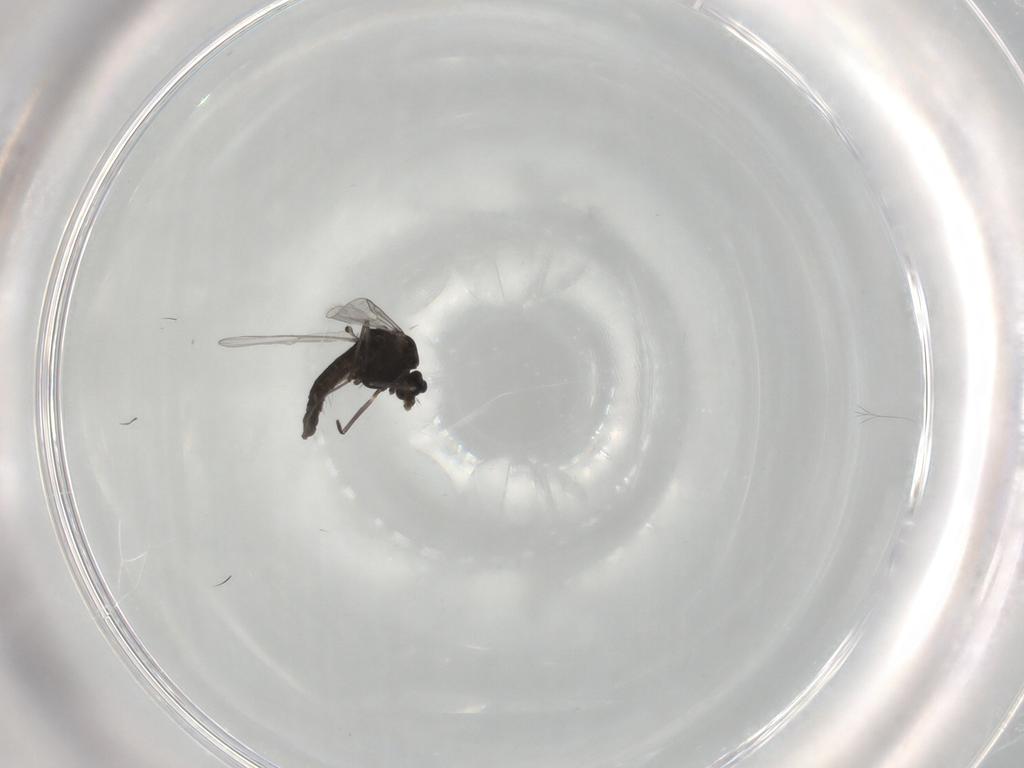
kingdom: Animalia
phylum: Arthropoda
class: Insecta
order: Diptera
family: Chironomidae
